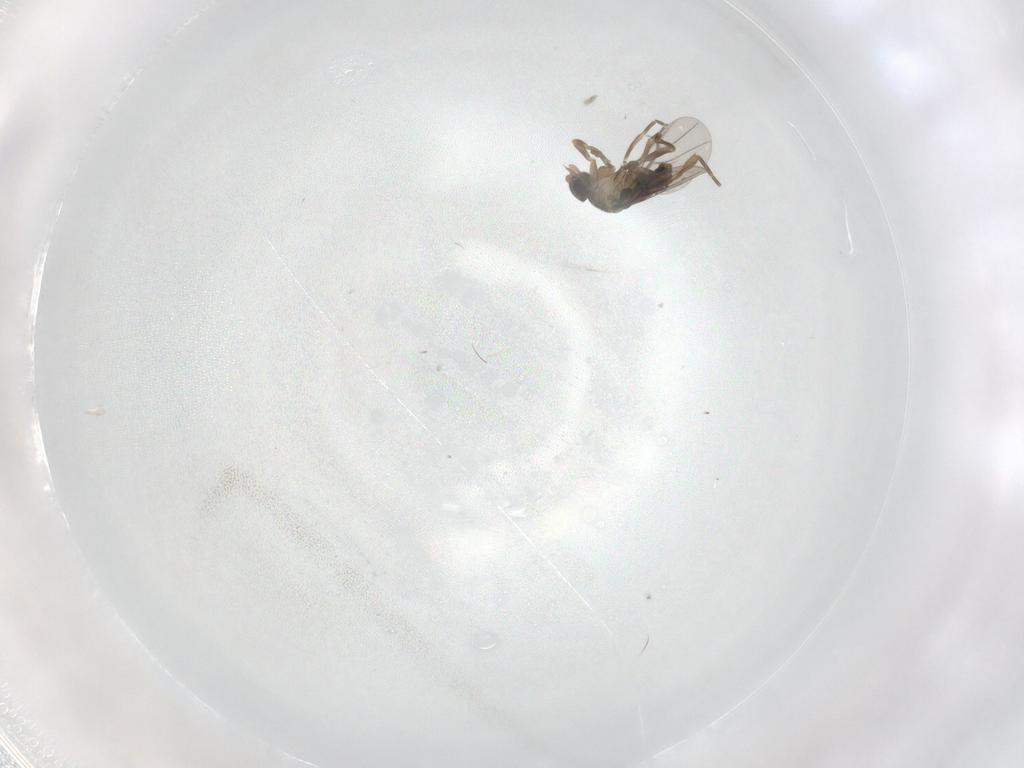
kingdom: Animalia
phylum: Arthropoda
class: Insecta
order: Diptera
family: Phoridae
